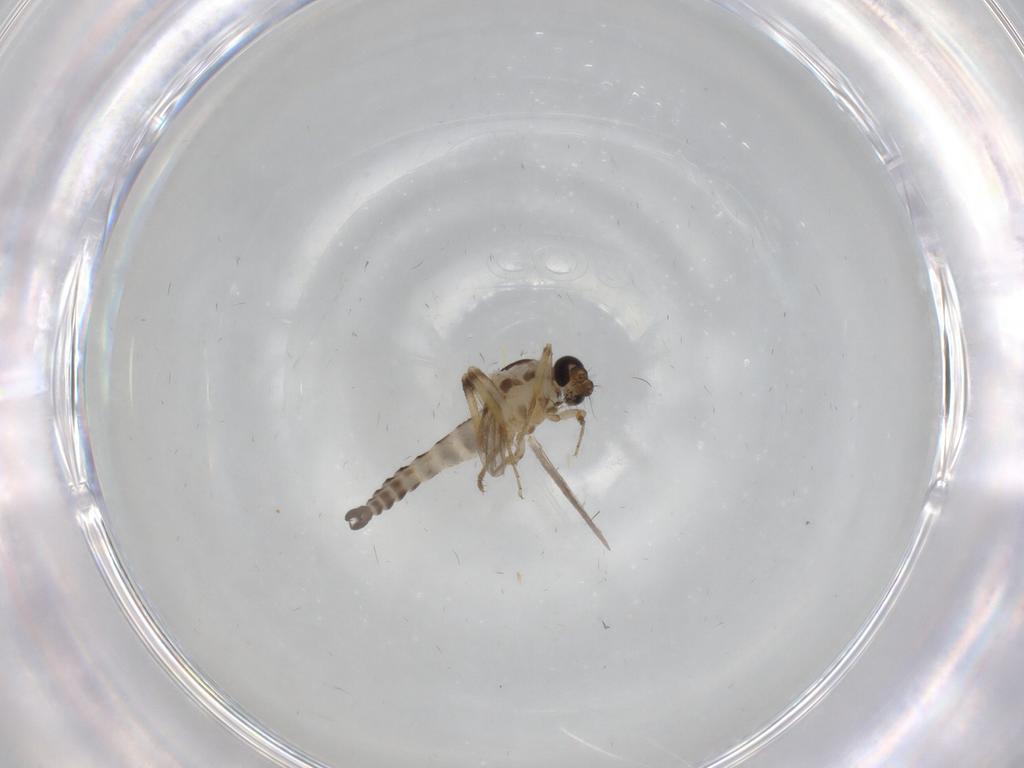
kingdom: Animalia
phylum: Arthropoda
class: Insecta
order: Diptera
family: Ceratopogonidae
